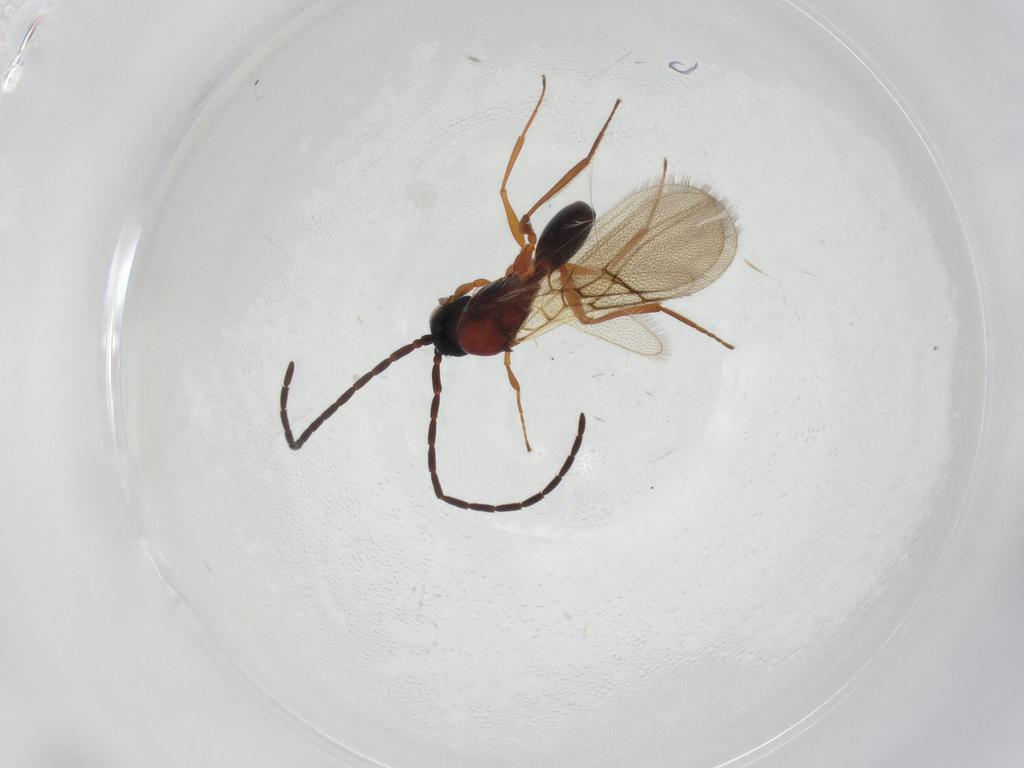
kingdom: Animalia
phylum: Arthropoda
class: Insecta
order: Hymenoptera
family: Figitidae
